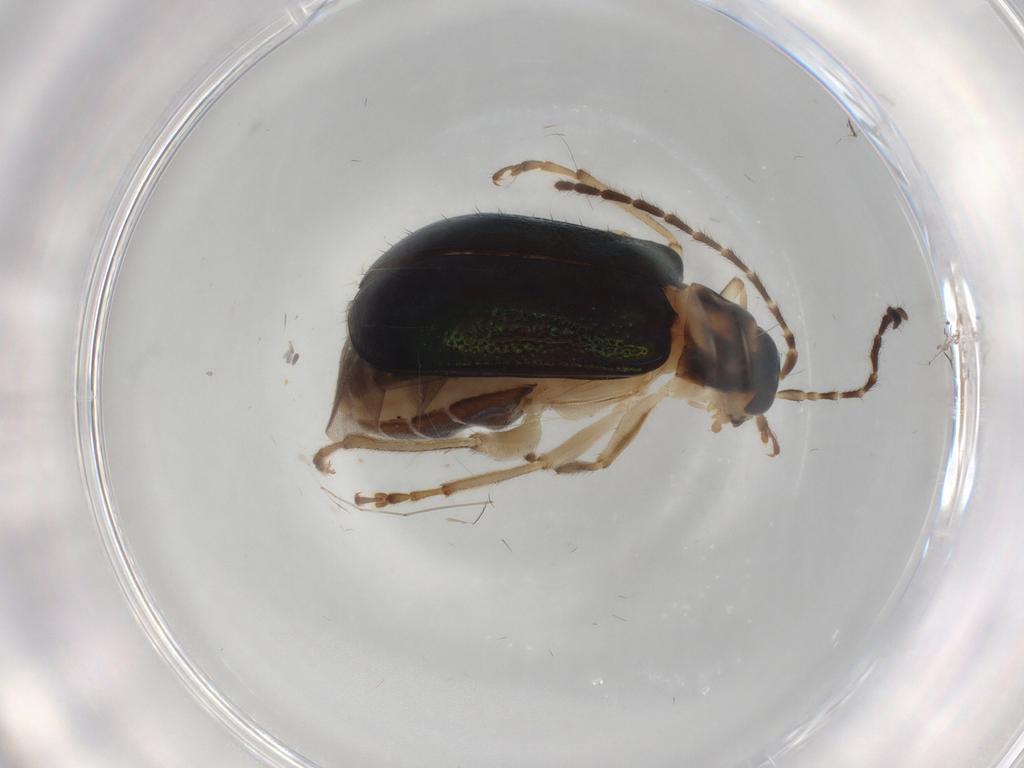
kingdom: Animalia
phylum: Arthropoda
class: Insecta
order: Coleoptera
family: Chrysomelidae
